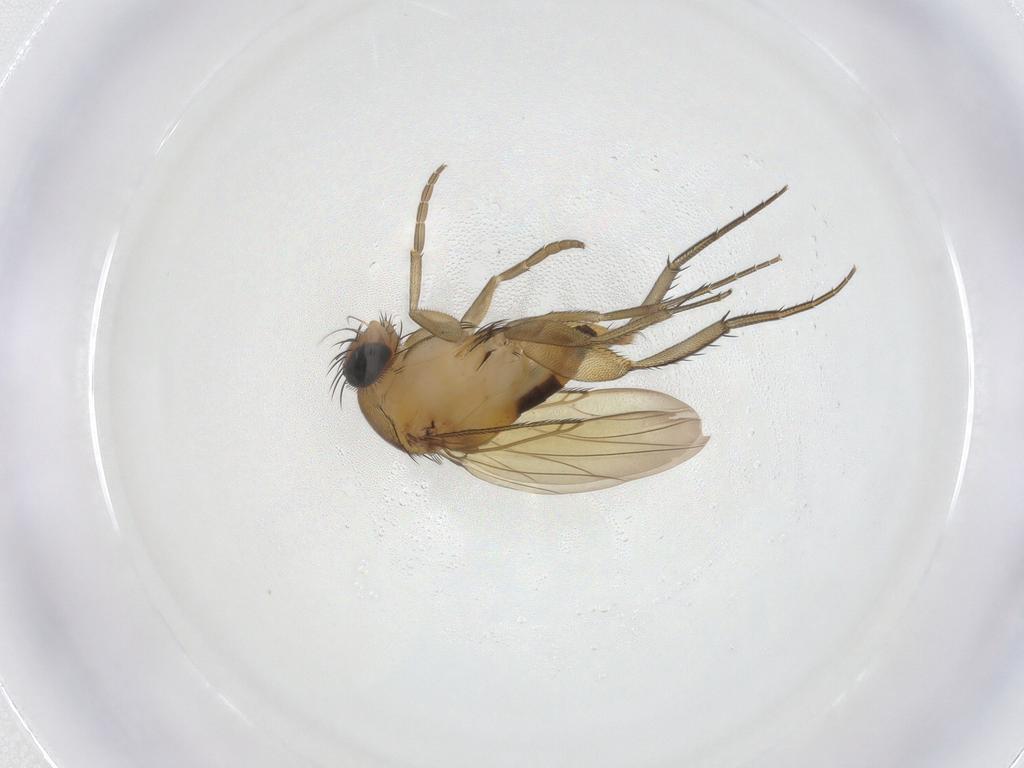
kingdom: Animalia
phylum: Arthropoda
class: Insecta
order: Diptera
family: Phoridae
